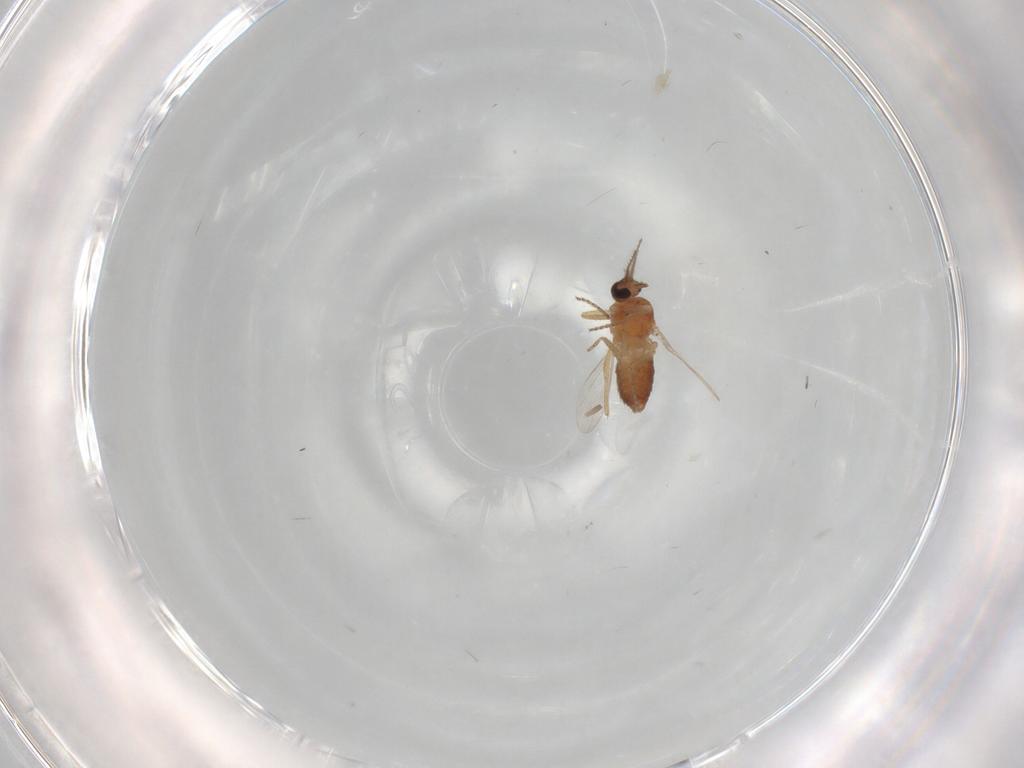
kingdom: Animalia
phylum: Arthropoda
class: Insecta
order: Diptera
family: Ceratopogonidae
